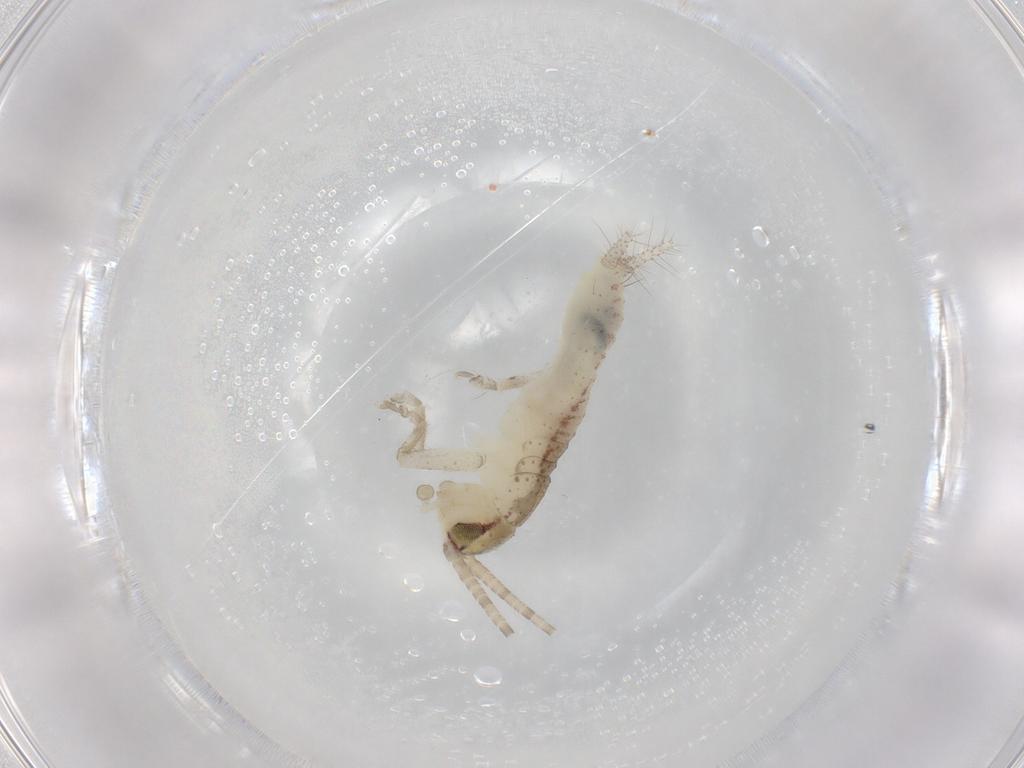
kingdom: Animalia
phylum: Arthropoda
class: Insecta
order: Orthoptera
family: Gryllidae
